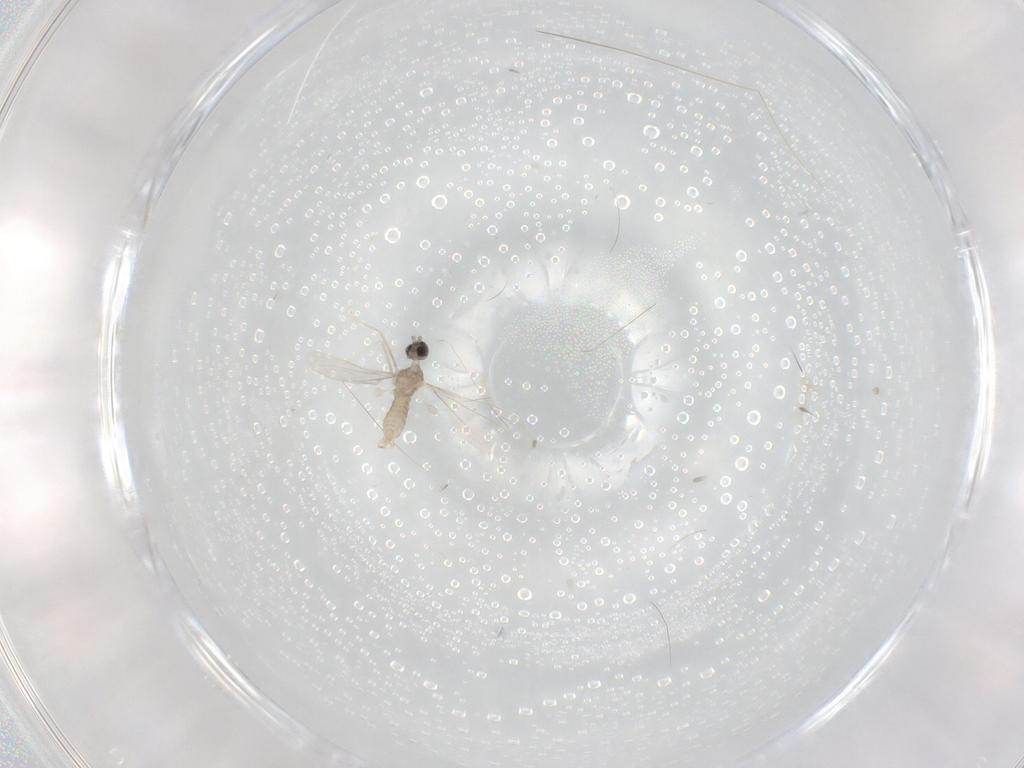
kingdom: Animalia
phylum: Arthropoda
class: Insecta
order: Diptera
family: Cecidomyiidae
